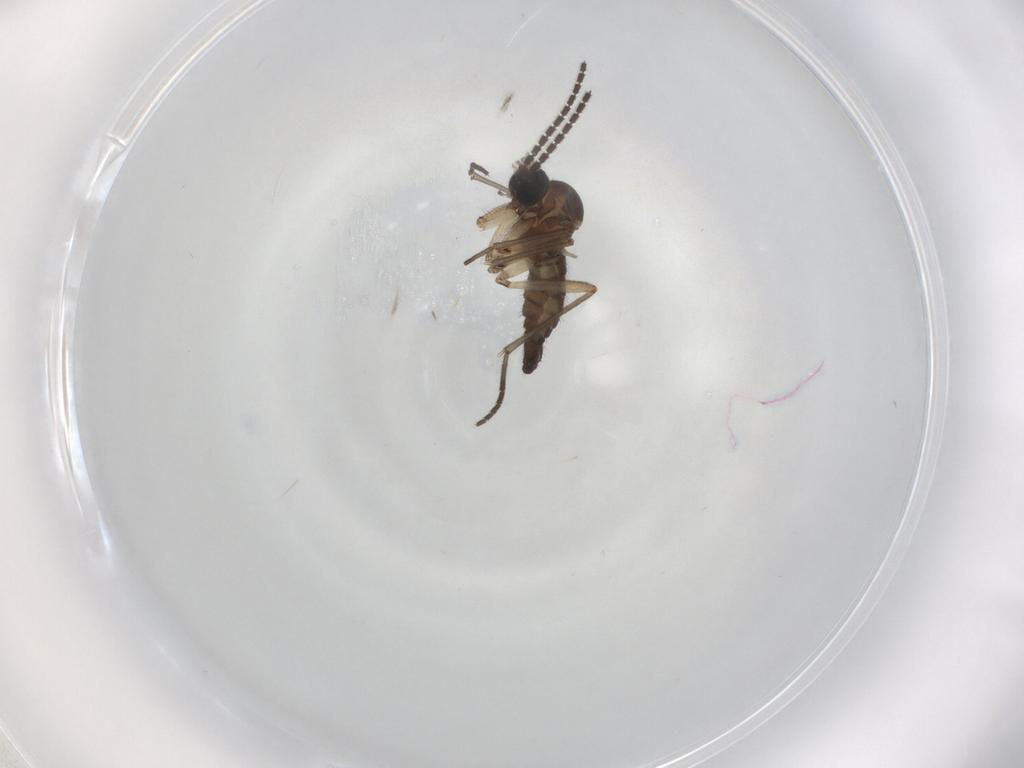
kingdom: Animalia
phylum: Arthropoda
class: Insecta
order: Diptera
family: Sciaridae
